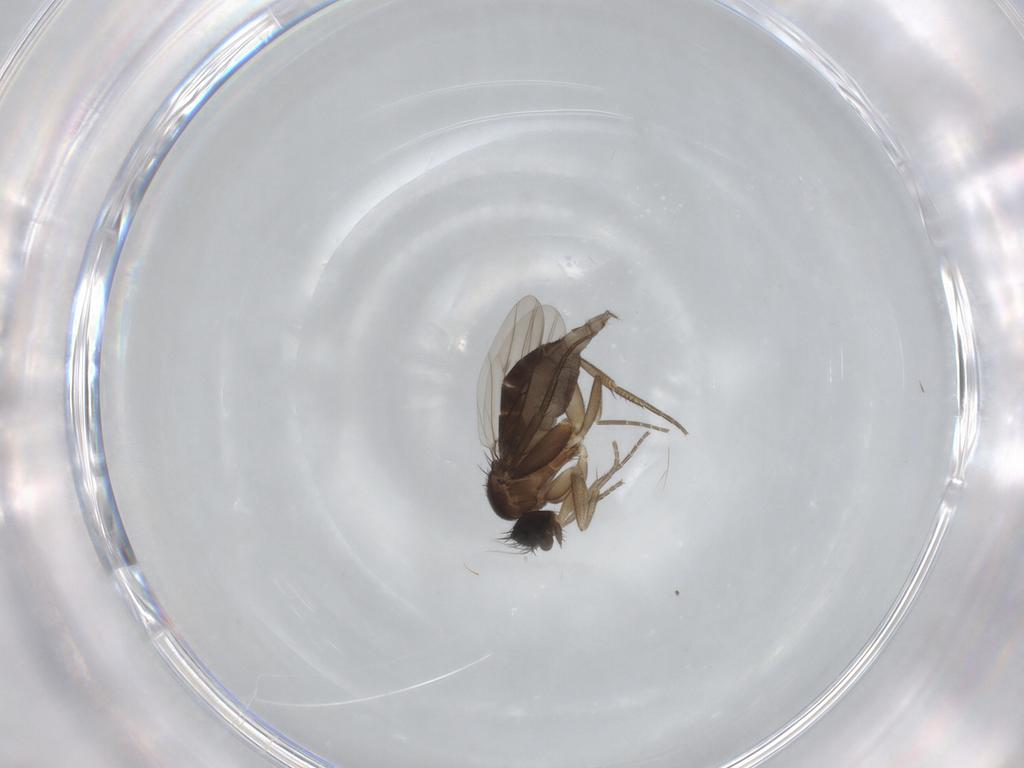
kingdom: Animalia
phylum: Arthropoda
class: Insecta
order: Diptera
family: Phoridae
